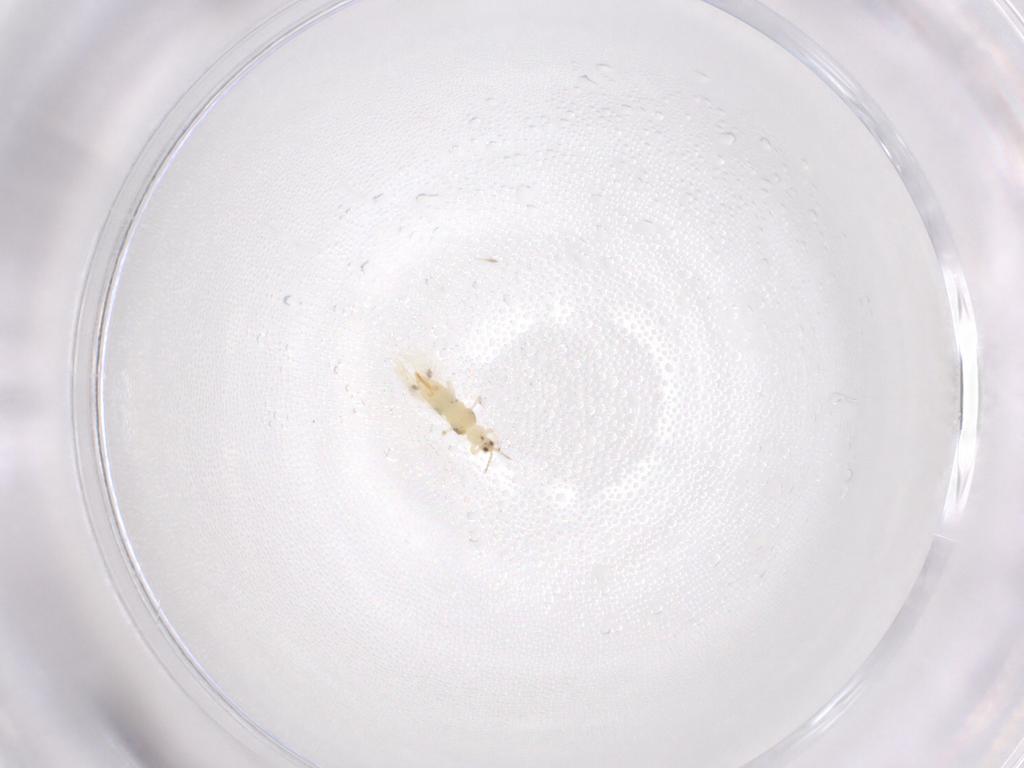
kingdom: Animalia
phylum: Arthropoda
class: Insecta
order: Thysanoptera
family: Thripidae
